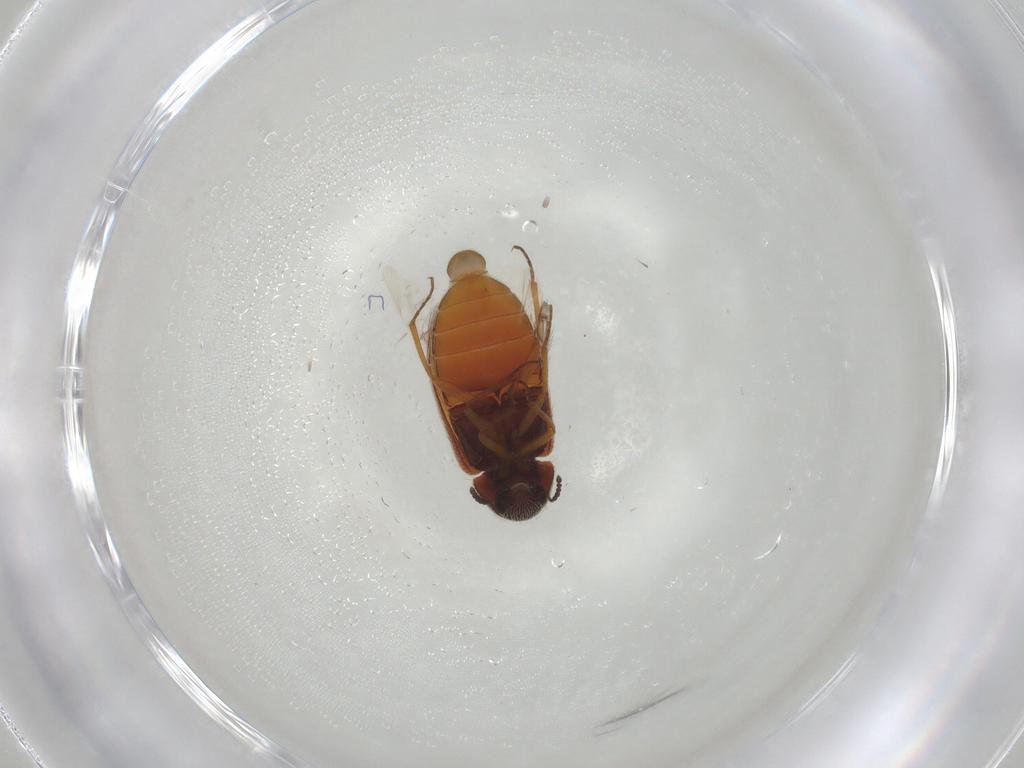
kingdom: Animalia
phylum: Arthropoda
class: Insecta
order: Coleoptera
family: Rhadalidae
